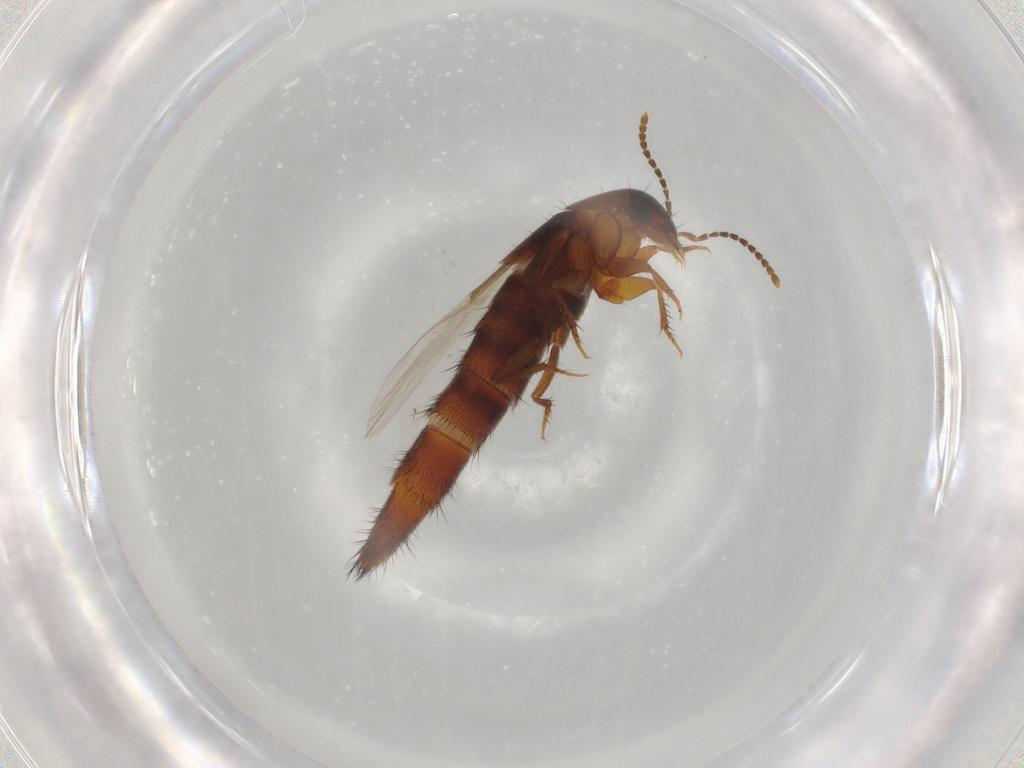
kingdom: Animalia
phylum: Arthropoda
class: Insecta
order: Coleoptera
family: Staphylinidae
